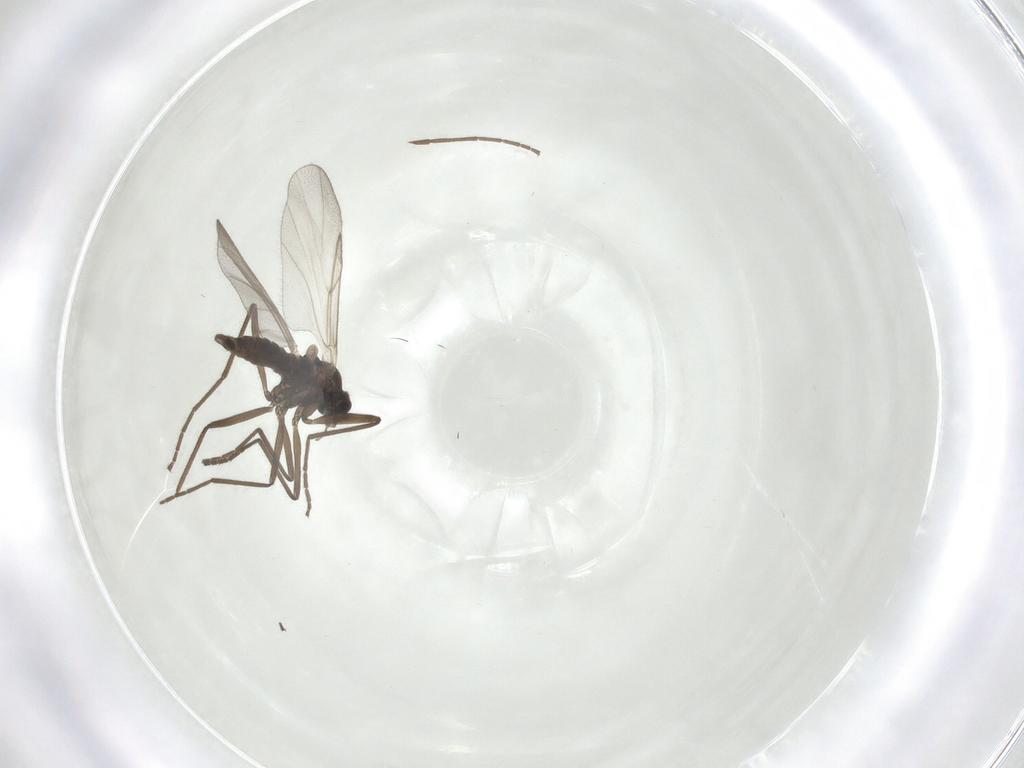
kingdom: Animalia
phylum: Arthropoda
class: Insecta
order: Diptera
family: Cecidomyiidae
